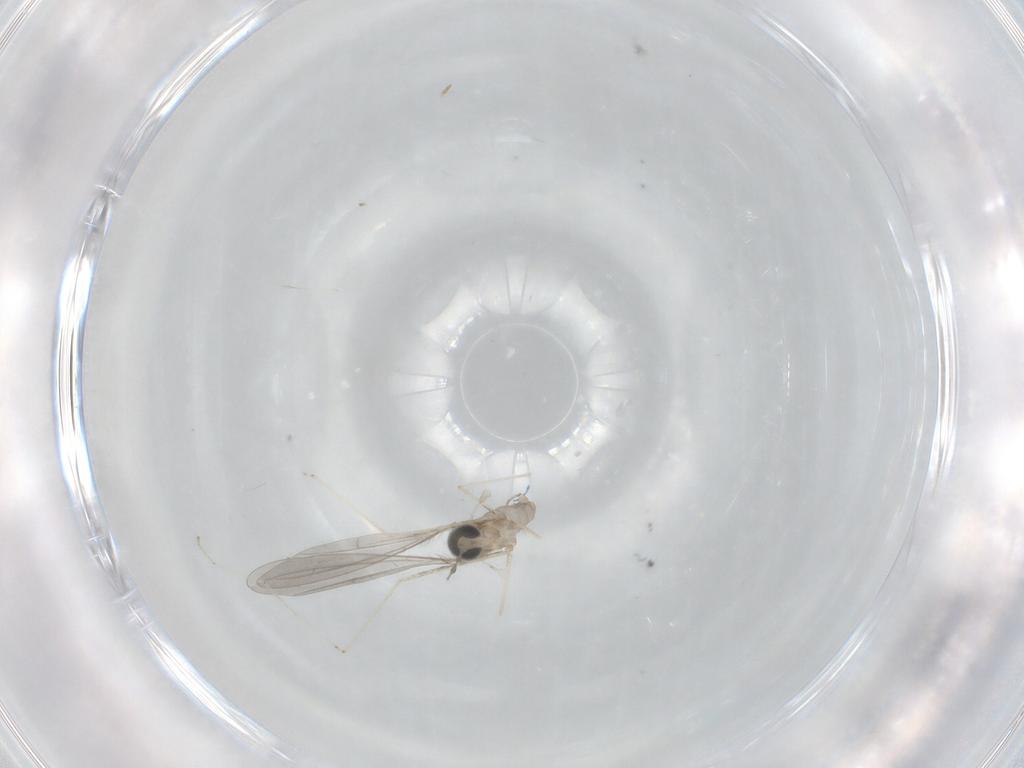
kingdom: Animalia
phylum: Arthropoda
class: Insecta
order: Diptera
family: Cecidomyiidae
